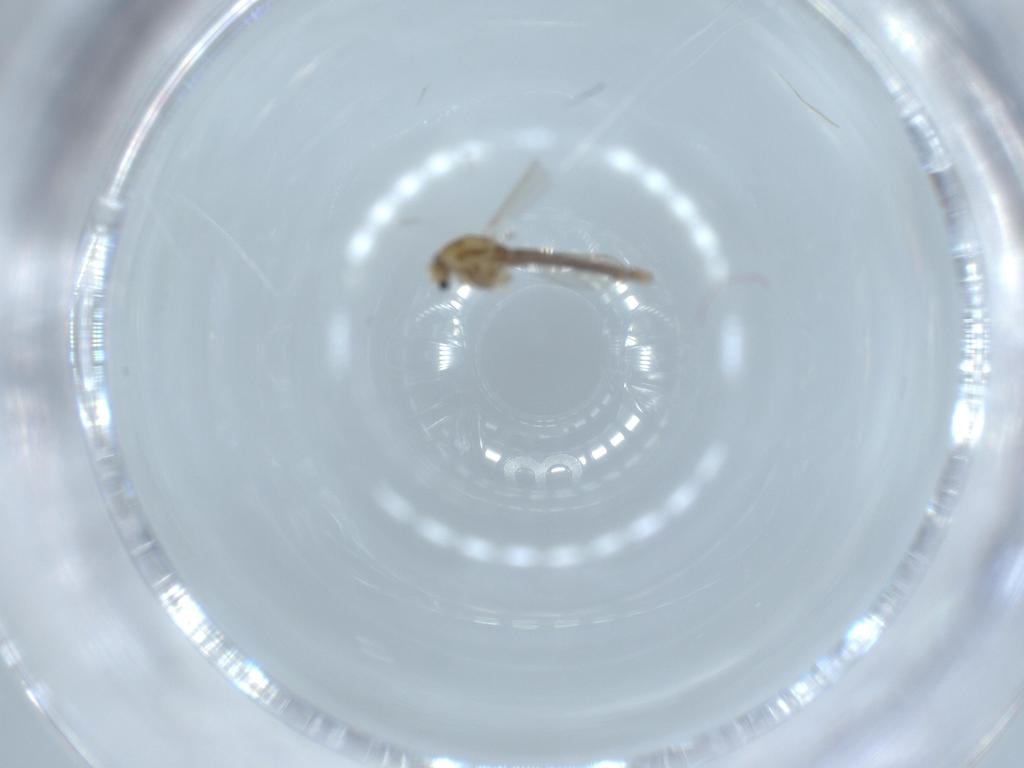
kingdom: Animalia
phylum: Arthropoda
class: Insecta
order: Diptera
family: Chironomidae
